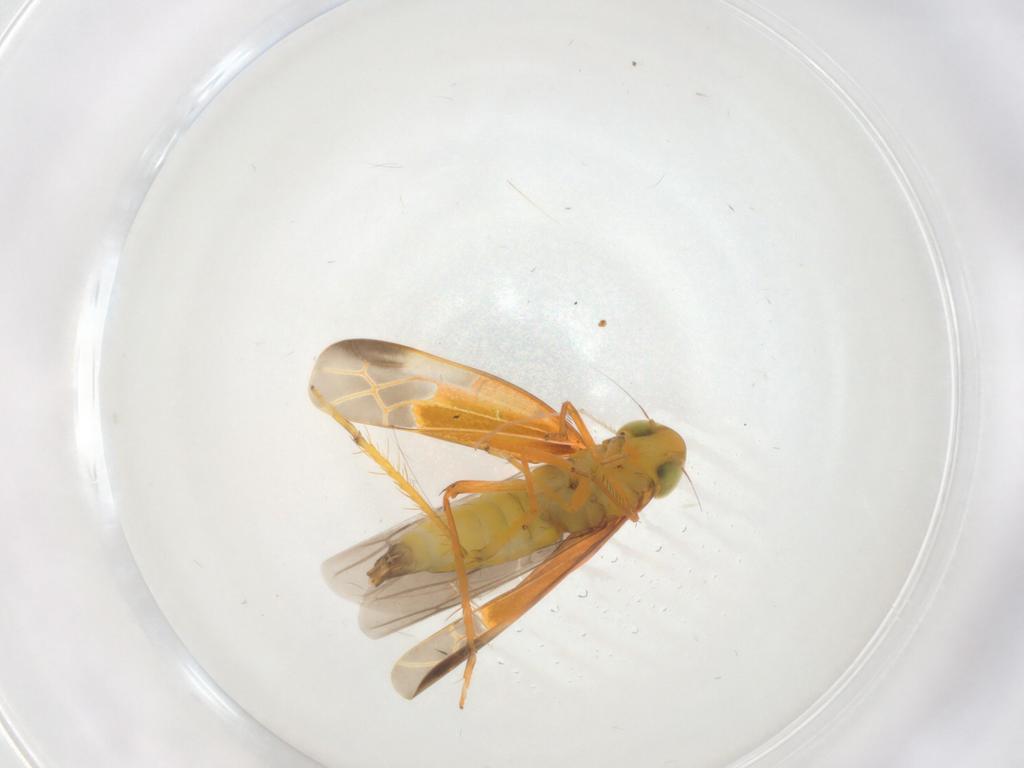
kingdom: Animalia
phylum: Arthropoda
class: Insecta
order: Hemiptera
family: Cicadellidae
